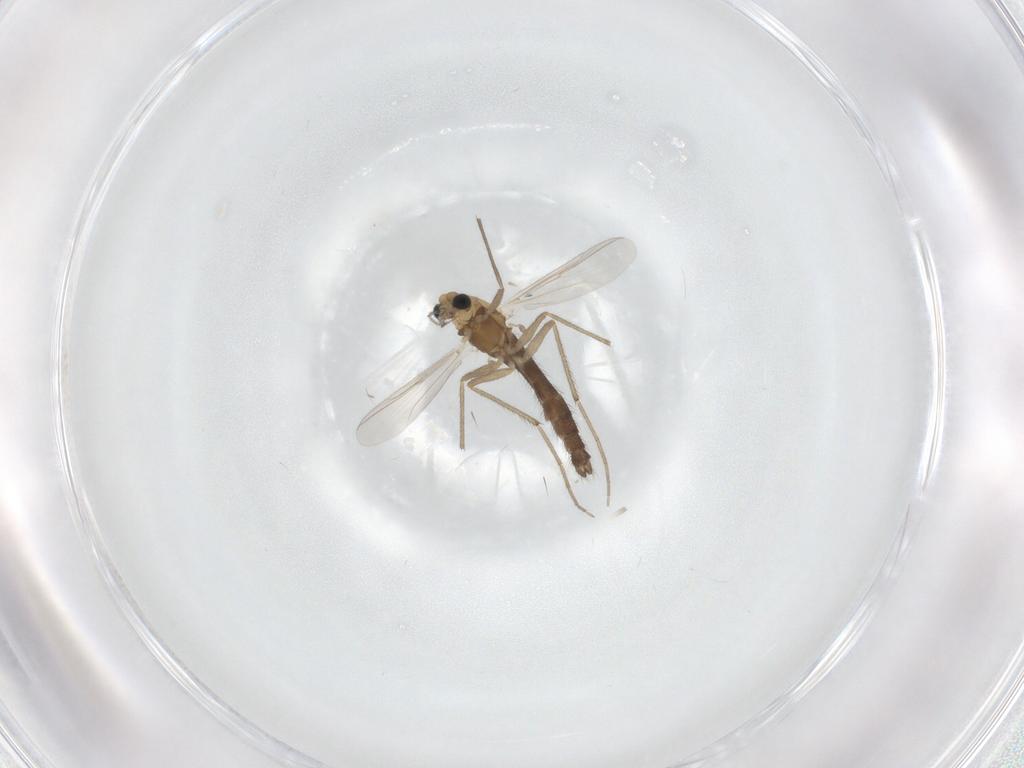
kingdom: Animalia
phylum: Arthropoda
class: Insecta
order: Diptera
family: Chironomidae
